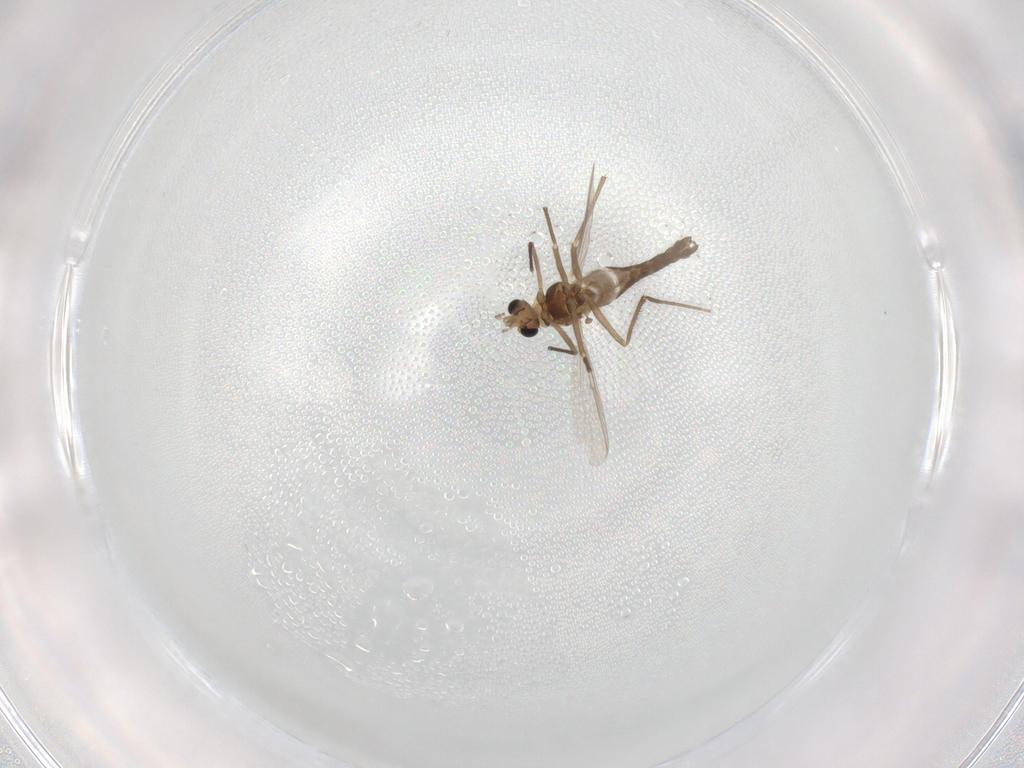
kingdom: Animalia
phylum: Arthropoda
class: Insecta
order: Diptera
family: Chironomidae
